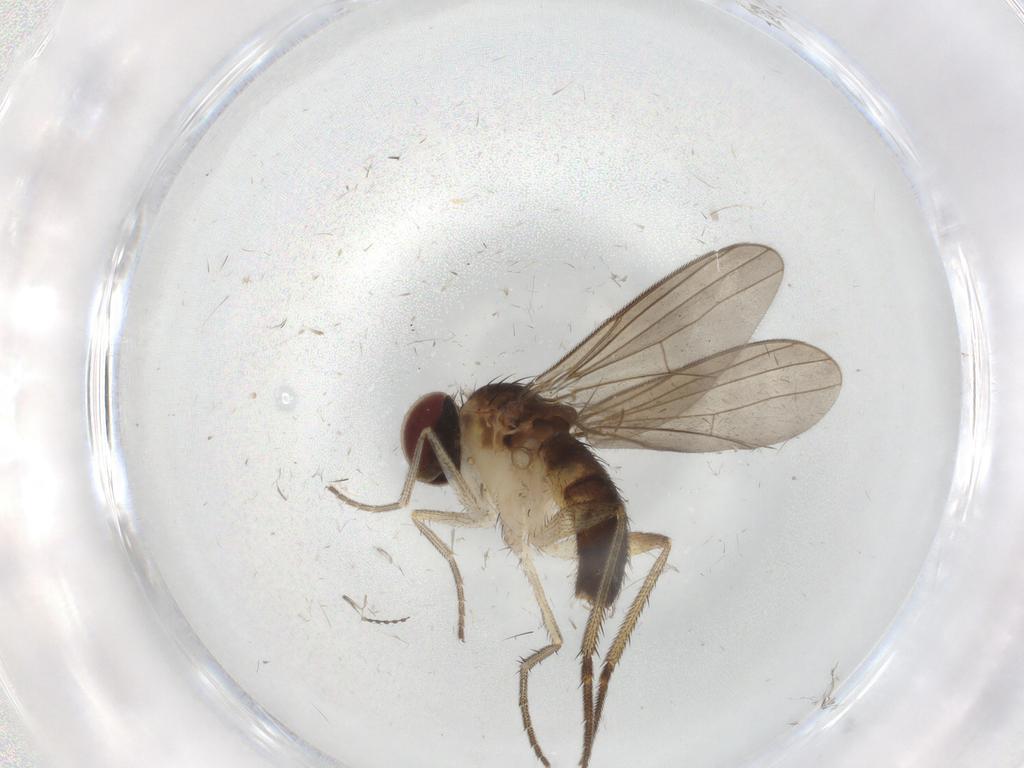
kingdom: Animalia
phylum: Arthropoda
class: Insecta
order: Diptera
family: Dolichopodidae
